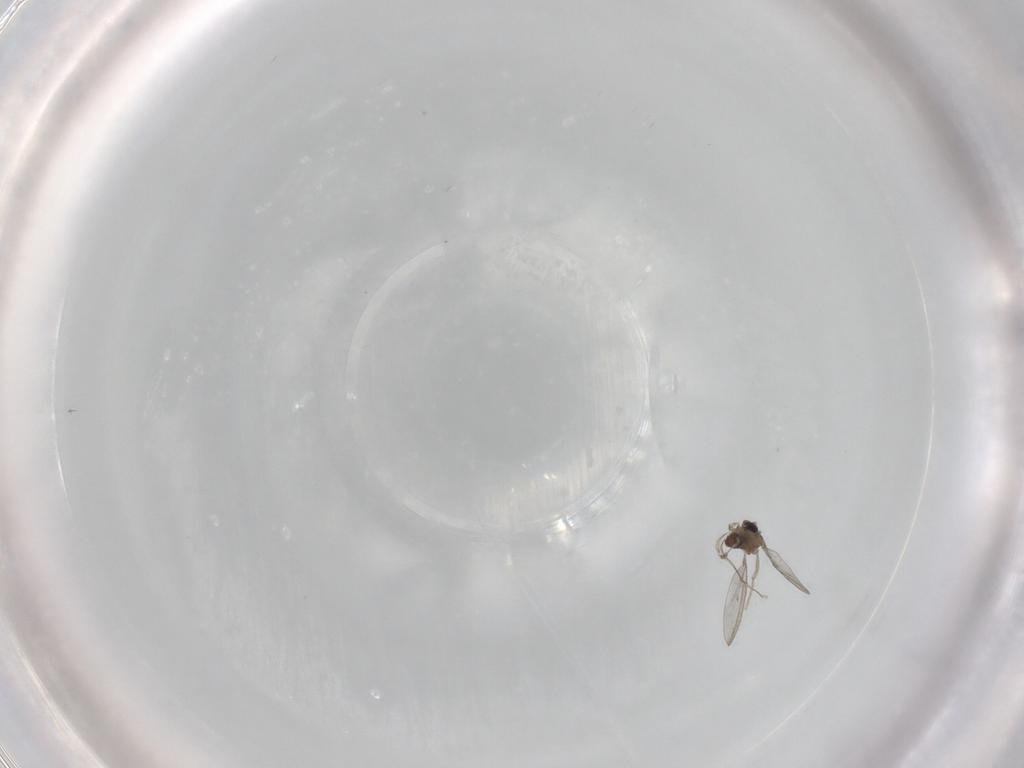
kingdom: Animalia
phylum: Arthropoda
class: Insecta
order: Diptera
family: Cecidomyiidae
